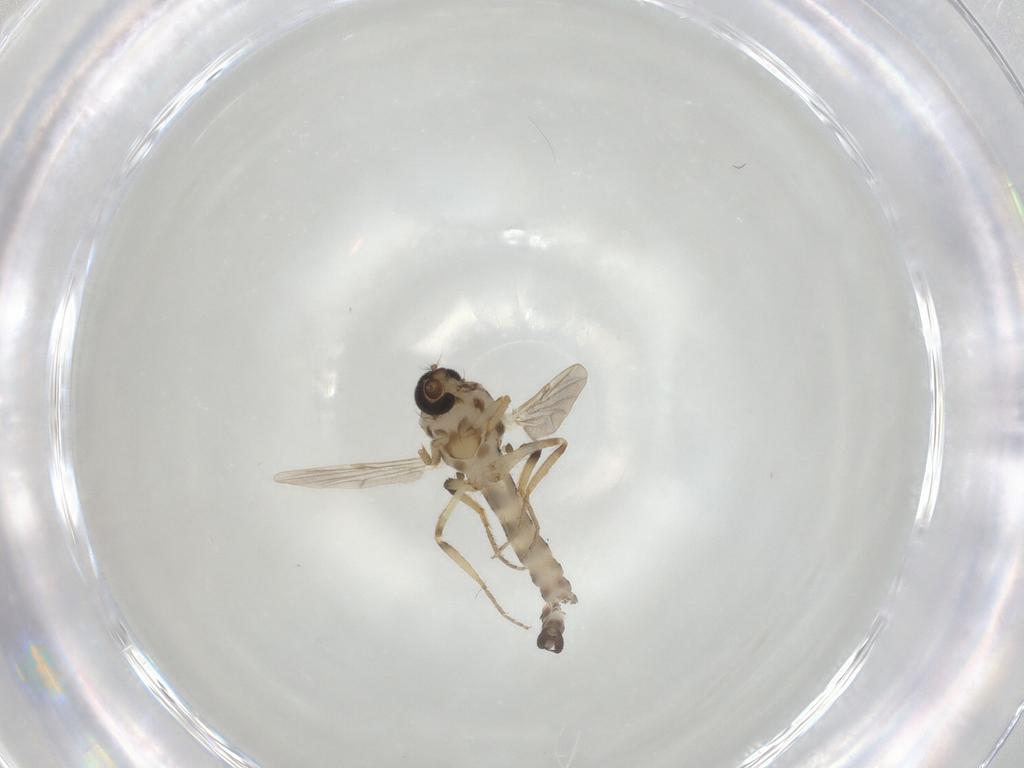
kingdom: Animalia
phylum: Arthropoda
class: Insecta
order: Diptera
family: Ceratopogonidae
